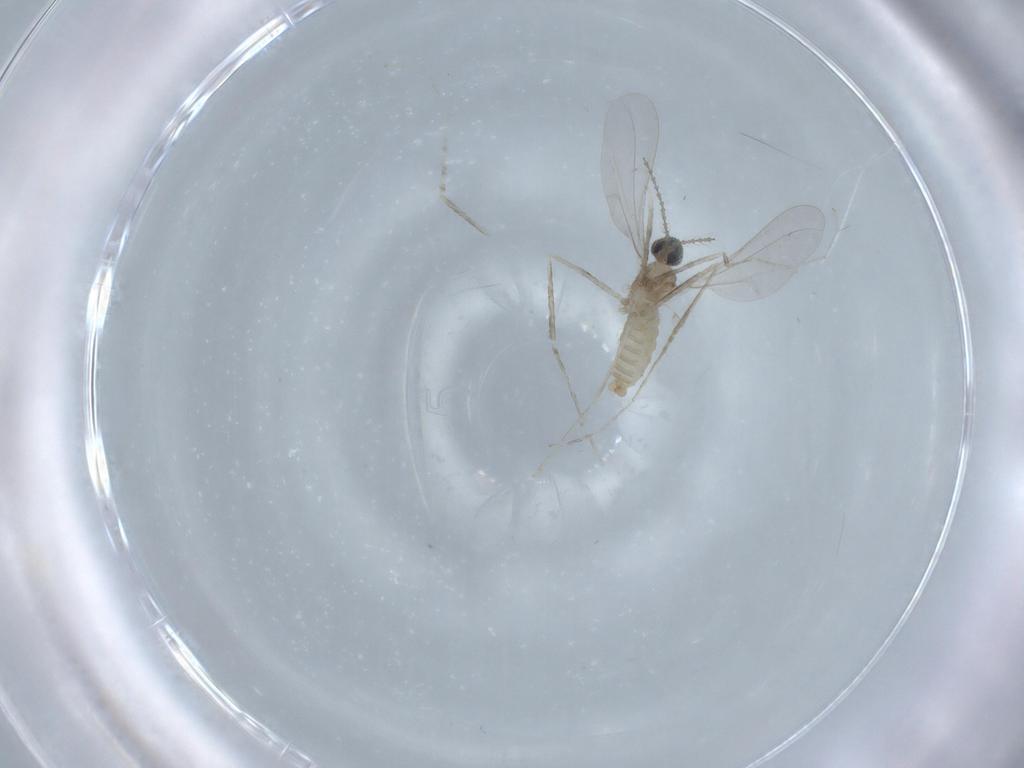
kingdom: Animalia
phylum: Arthropoda
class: Insecta
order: Diptera
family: Cecidomyiidae
